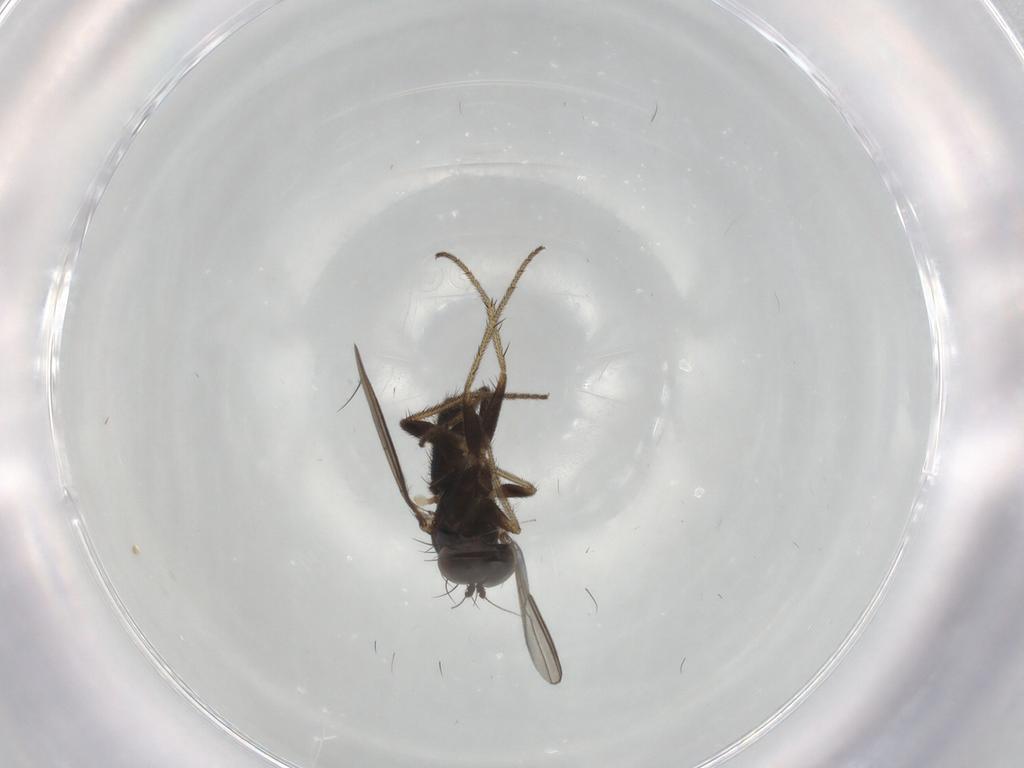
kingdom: Animalia
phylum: Arthropoda
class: Insecta
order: Diptera
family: Dolichopodidae
